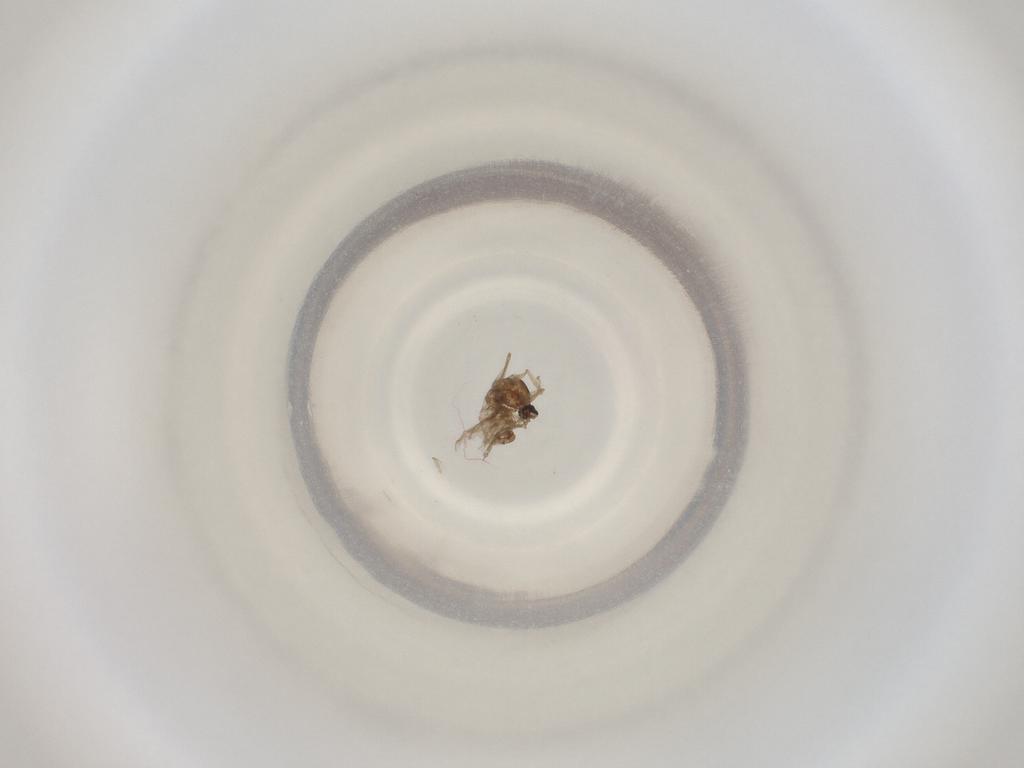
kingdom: Animalia
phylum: Arthropoda
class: Insecta
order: Diptera
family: Cecidomyiidae
